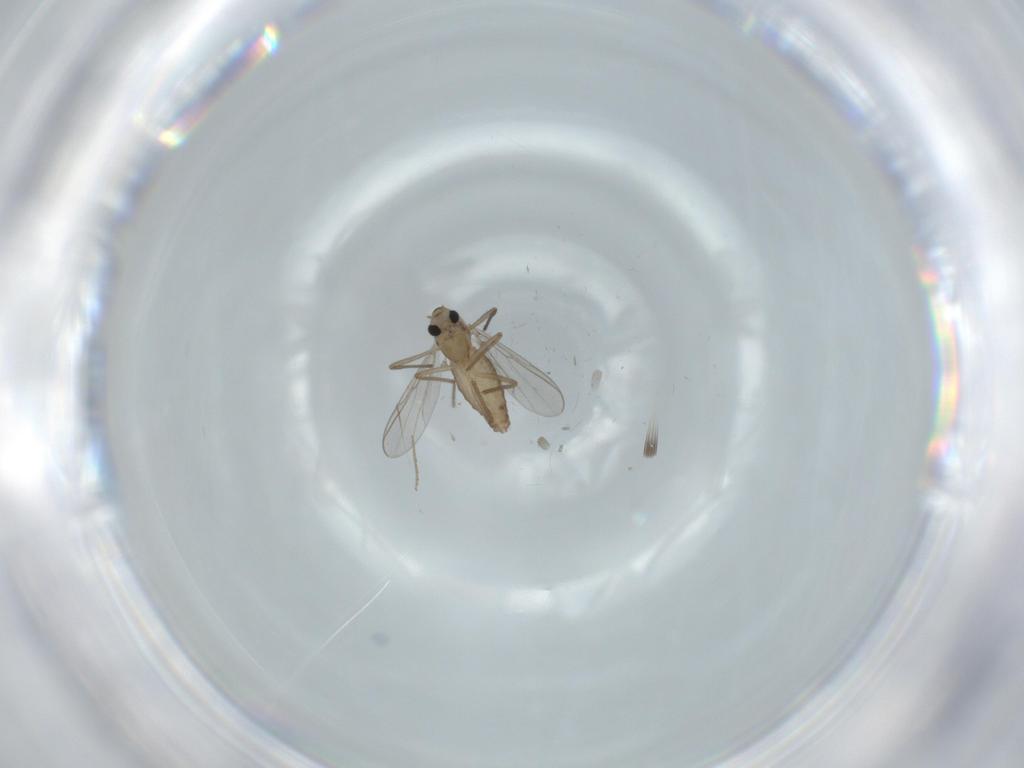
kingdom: Animalia
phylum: Arthropoda
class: Insecta
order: Diptera
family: Chironomidae
